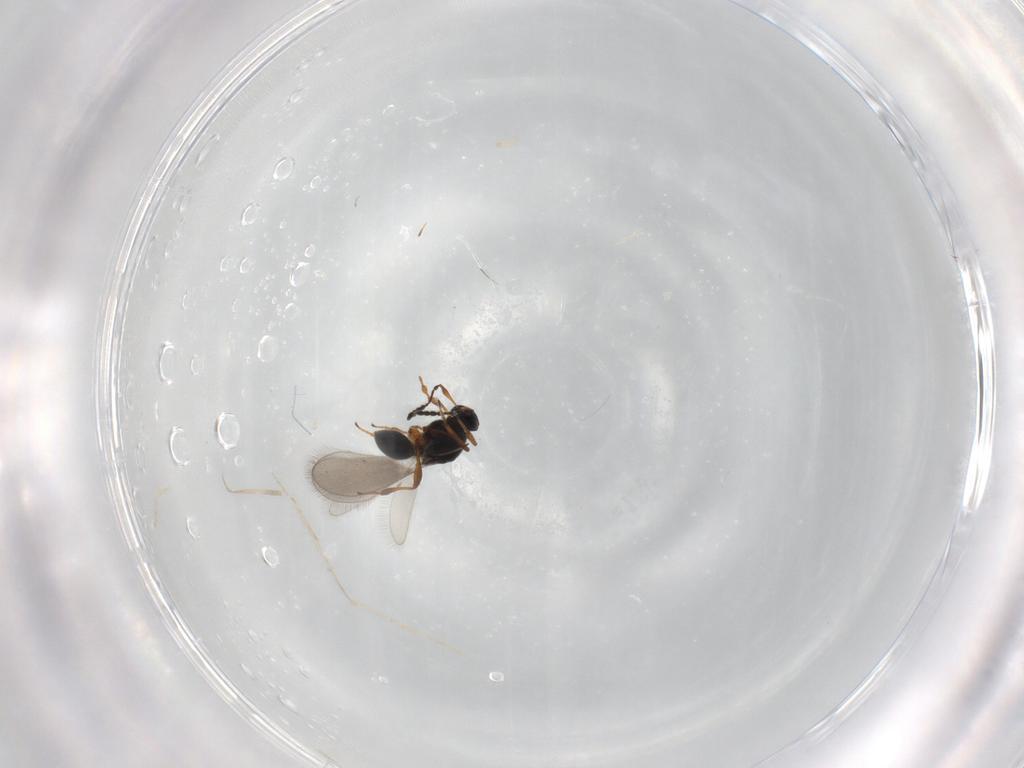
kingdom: Animalia
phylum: Arthropoda
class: Insecta
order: Hymenoptera
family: Platygastridae
